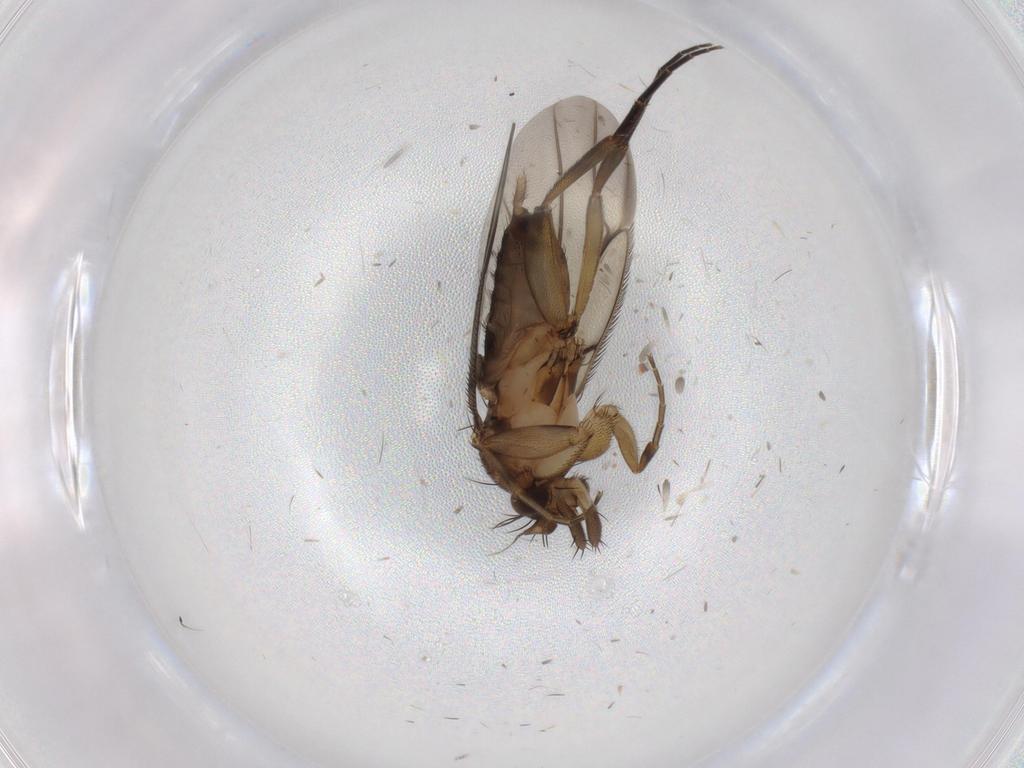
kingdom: Animalia
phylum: Arthropoda
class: Insecta
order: Diptera
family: Phoridae
